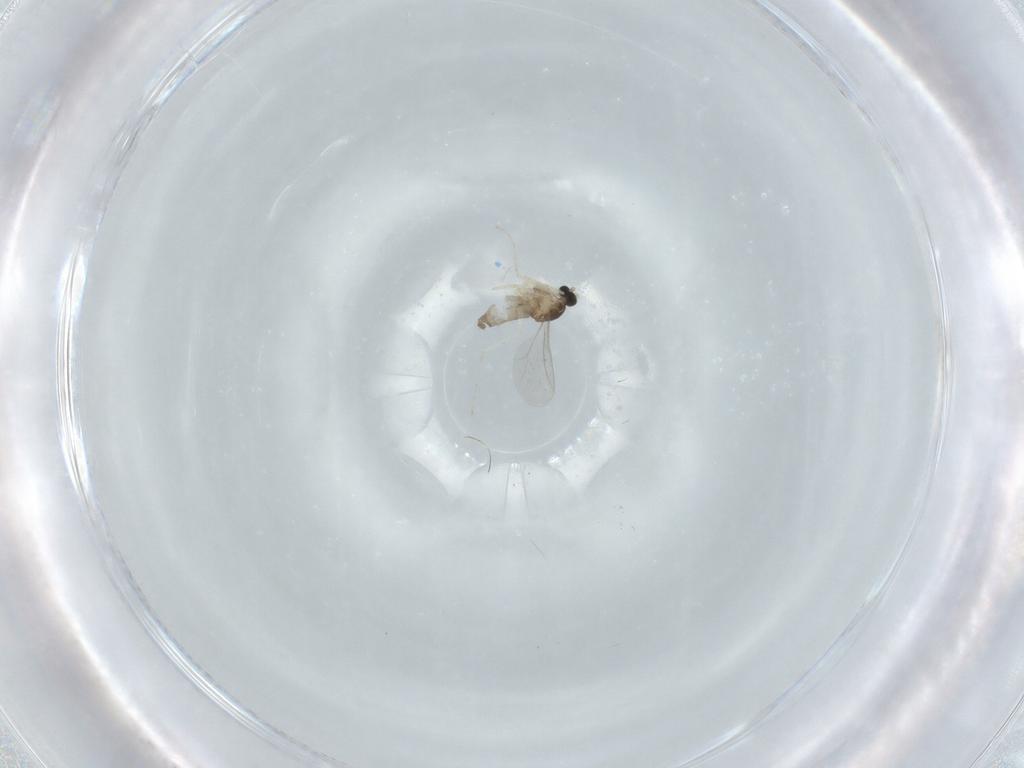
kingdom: Animalia
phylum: Arthropoda
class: Insecta
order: Diptera
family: Cecidomyiidae
